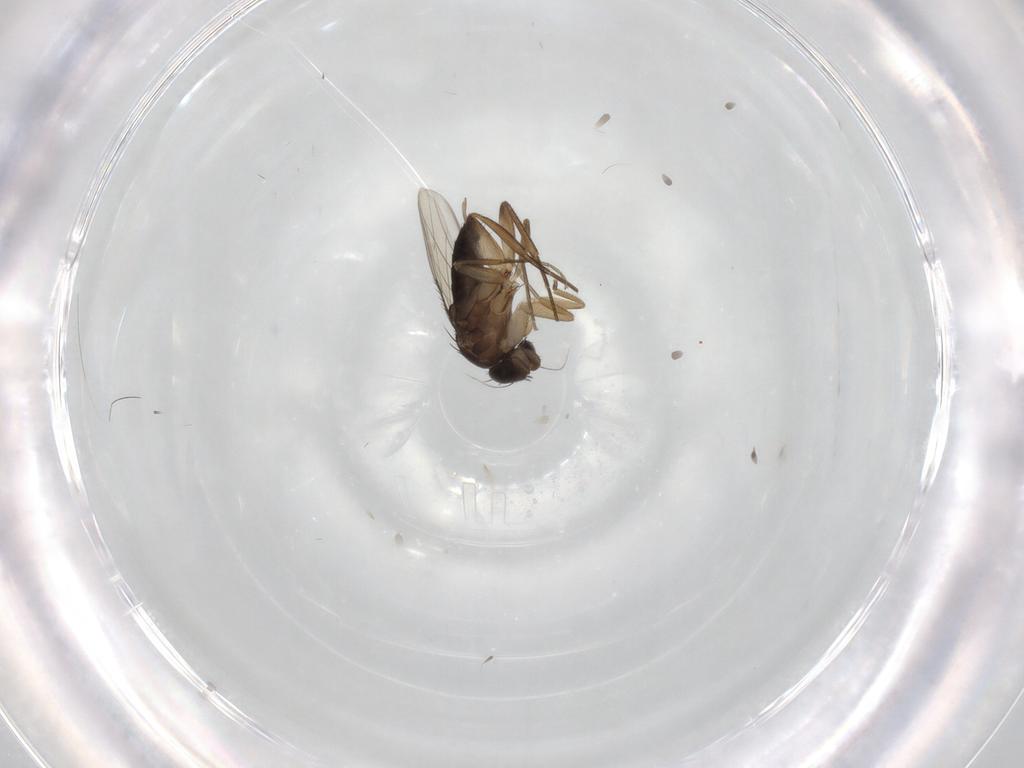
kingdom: Animalia
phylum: Arthropoda
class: Insecta
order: Diptera
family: Phoridae
